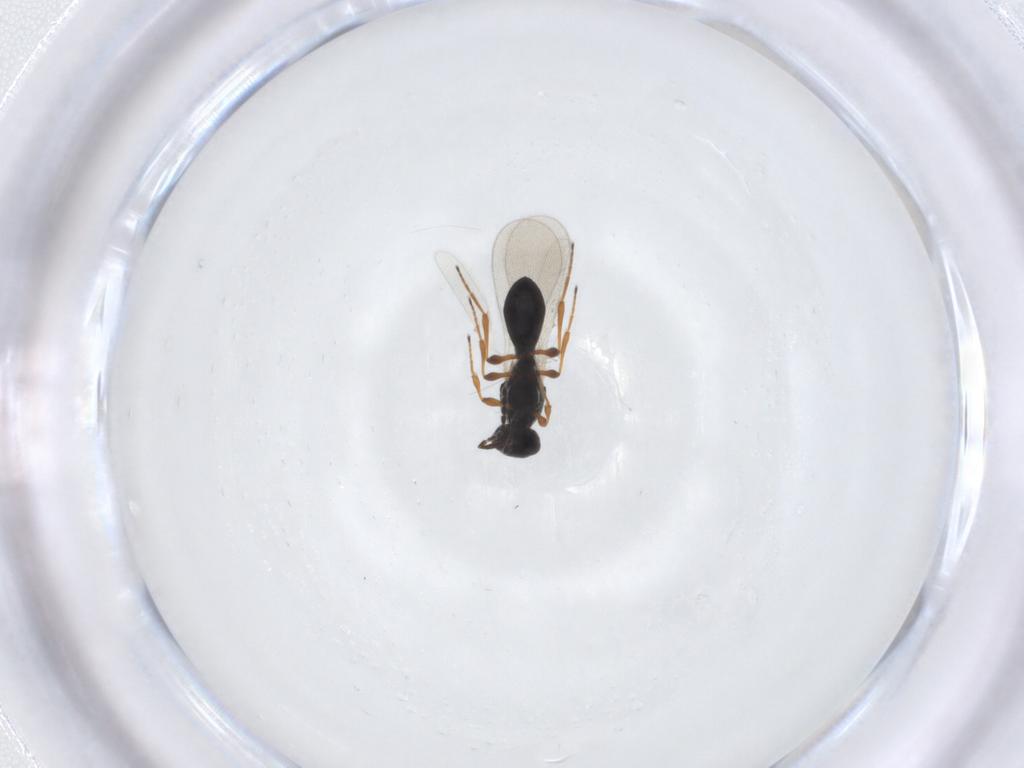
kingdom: Animalia
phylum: Arthropoda
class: Insecta
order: Hymenoptera
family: Platygastridae
